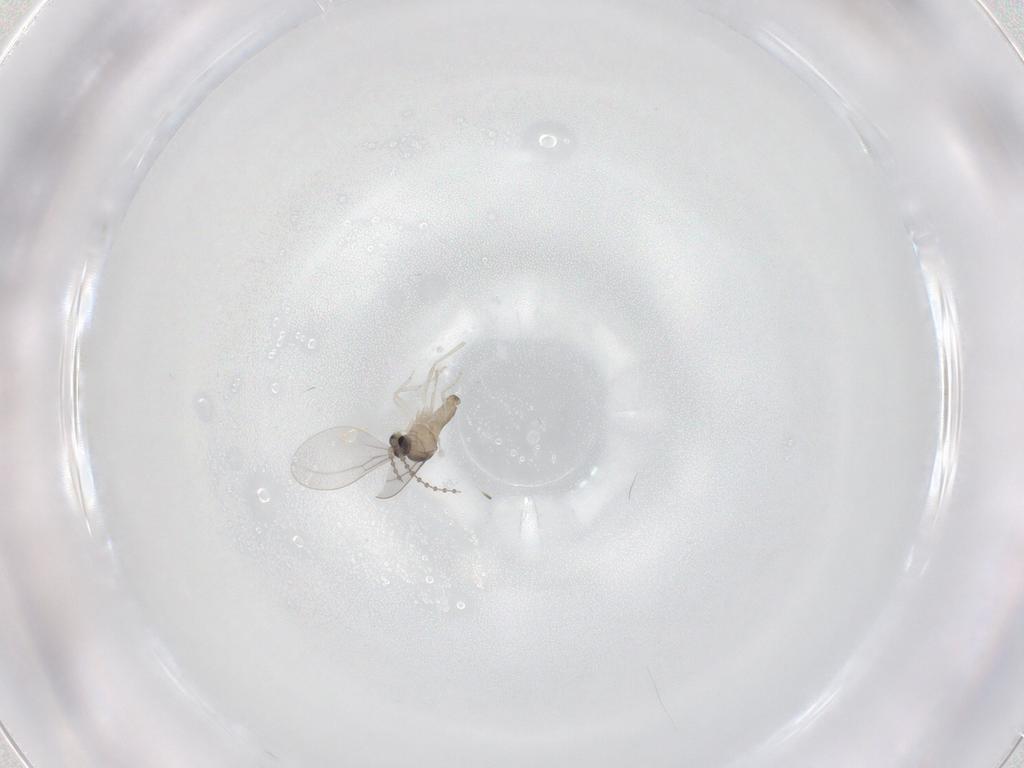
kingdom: Animalia
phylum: Arthropoda
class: Insecta
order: Diptera
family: Cecidomyiidae
